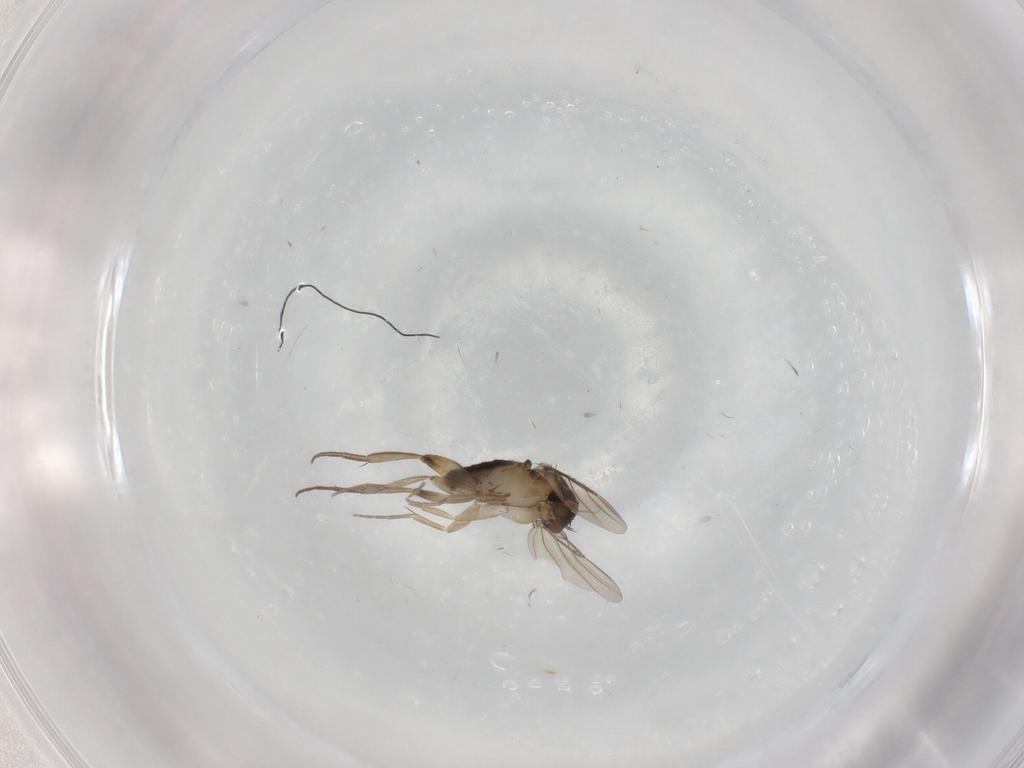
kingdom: Animalia
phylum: Arthropoda
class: Insecta
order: Diptera
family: Phoridae
